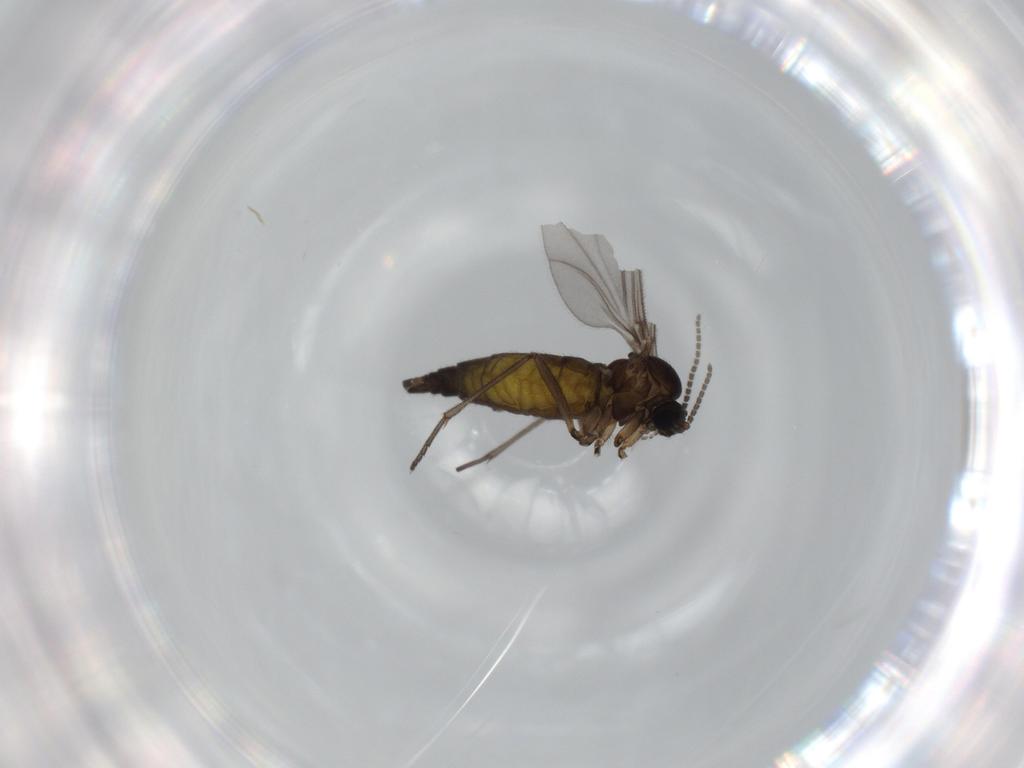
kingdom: Animalia
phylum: Arthropoda
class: Insecta
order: Diptera
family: Sciaridae
